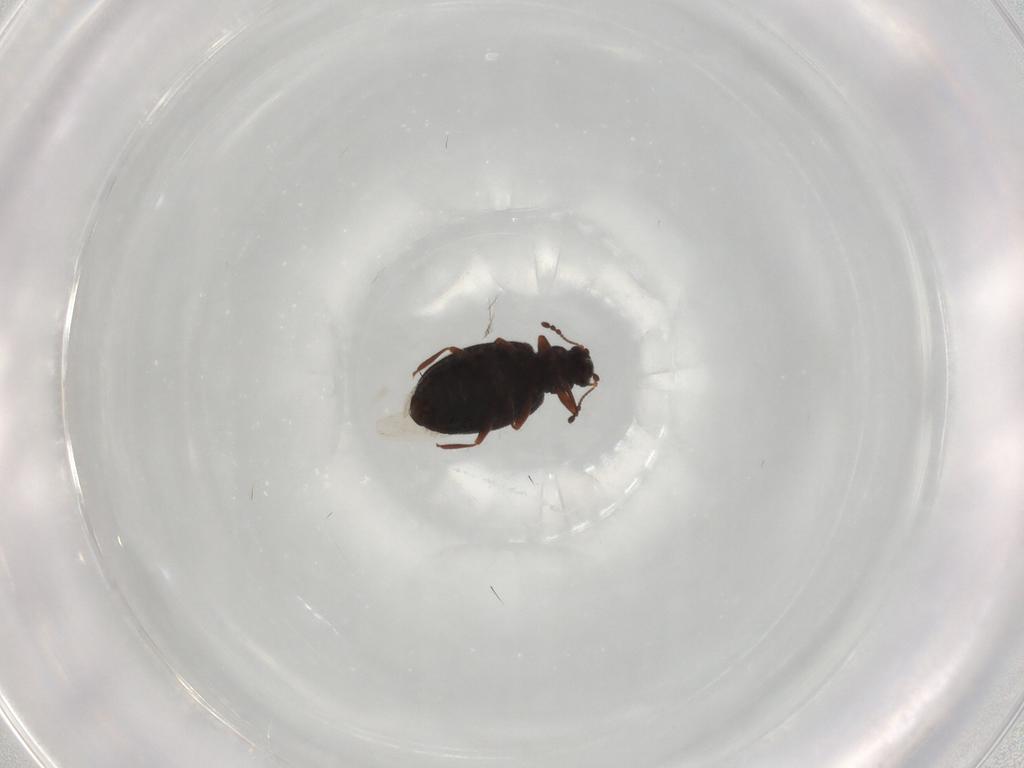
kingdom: Animalia
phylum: Arthropoda
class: Insecta
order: Coleoptera
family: Latridiidae
